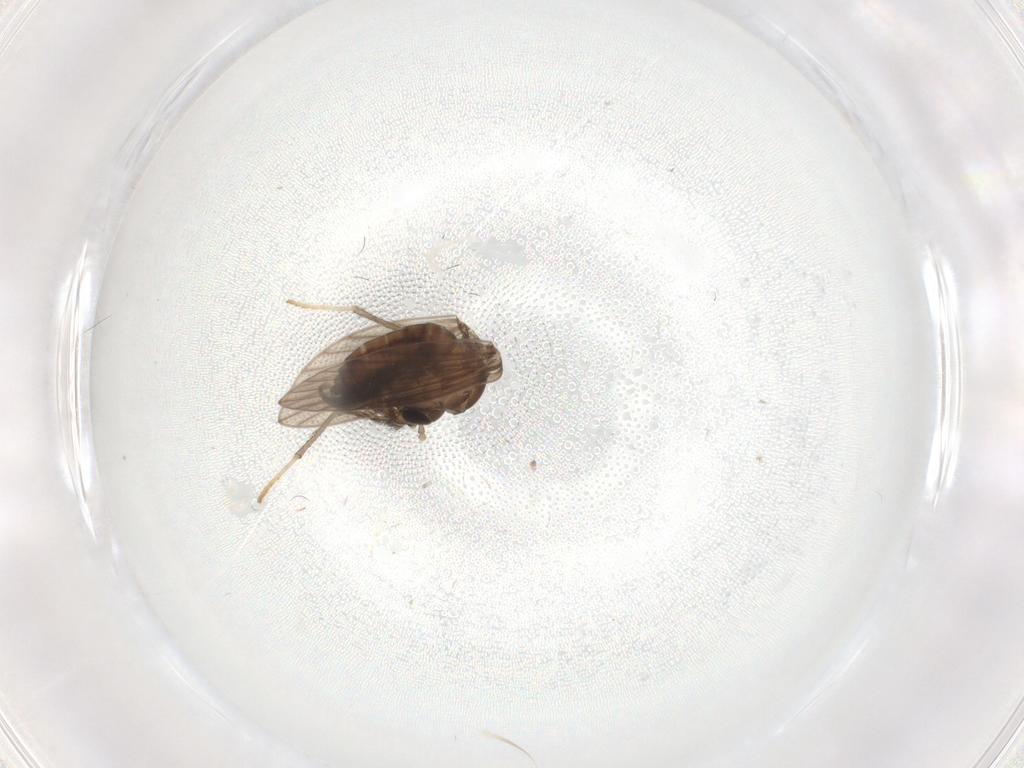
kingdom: Animalia
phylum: Arthropoda
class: Insecta
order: Diptera
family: Psychodidae
